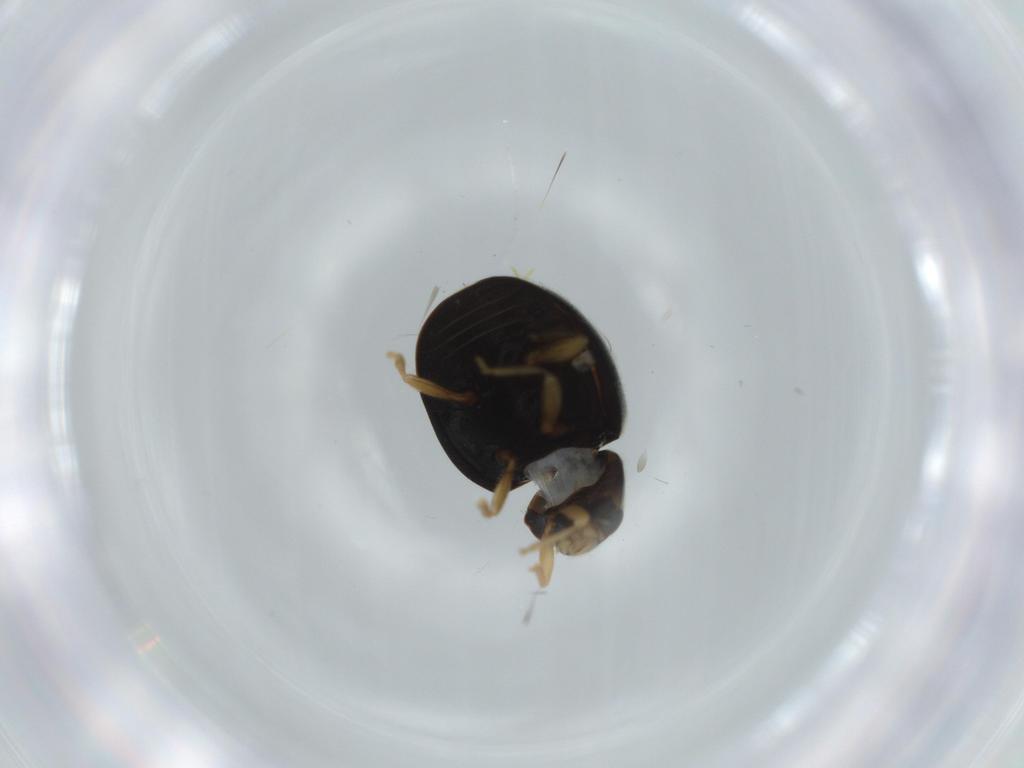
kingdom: Animalia
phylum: Arthropoda
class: Insecta
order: Coleoptera
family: Coccinellidae
